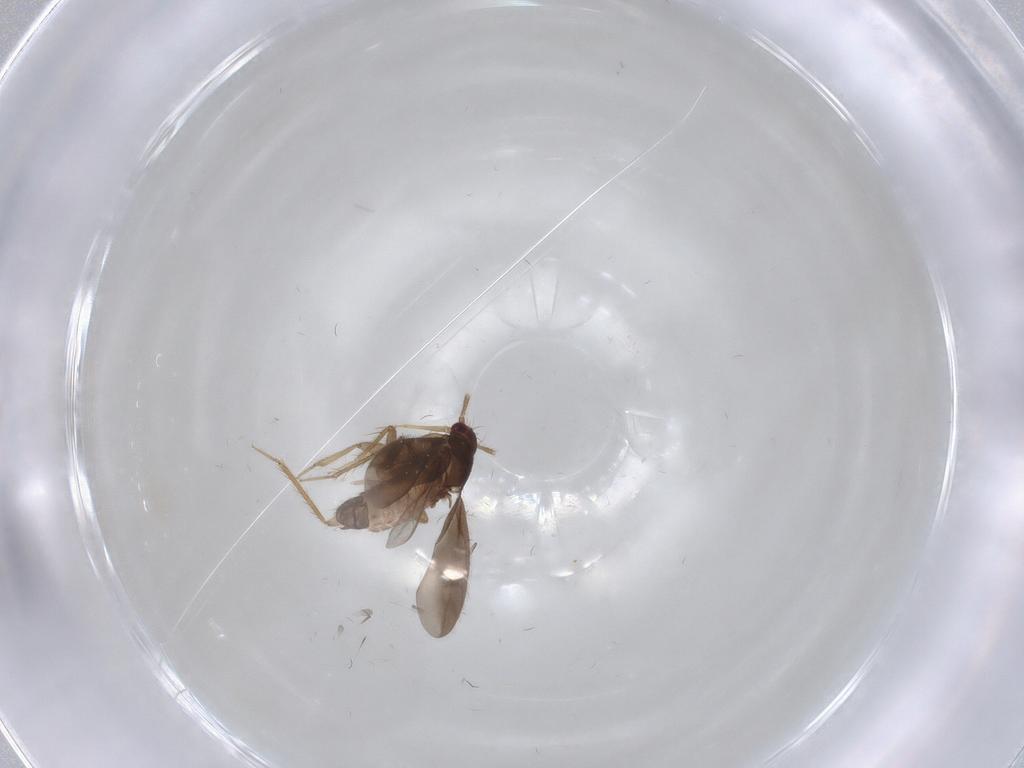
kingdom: Animalia
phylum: Arthropoda
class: Insecta
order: Hemiptera
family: Ceratocombidae
